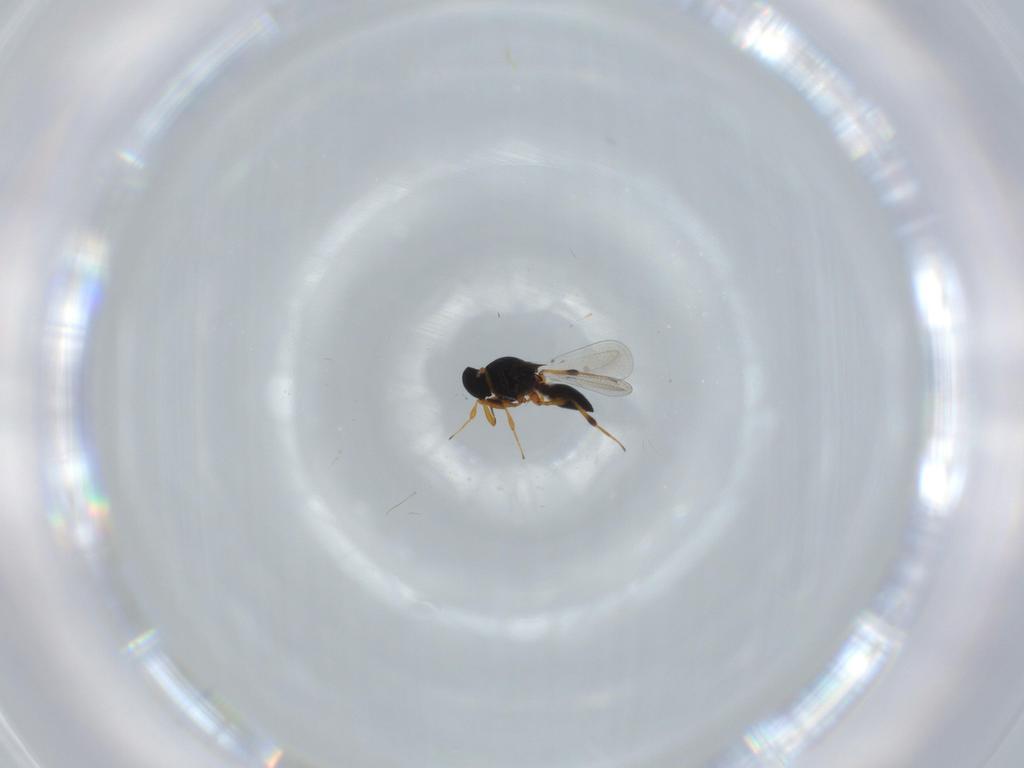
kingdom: Animalia
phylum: Arthropoda
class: Insecta
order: Hymenoptera
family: Platygastridae
